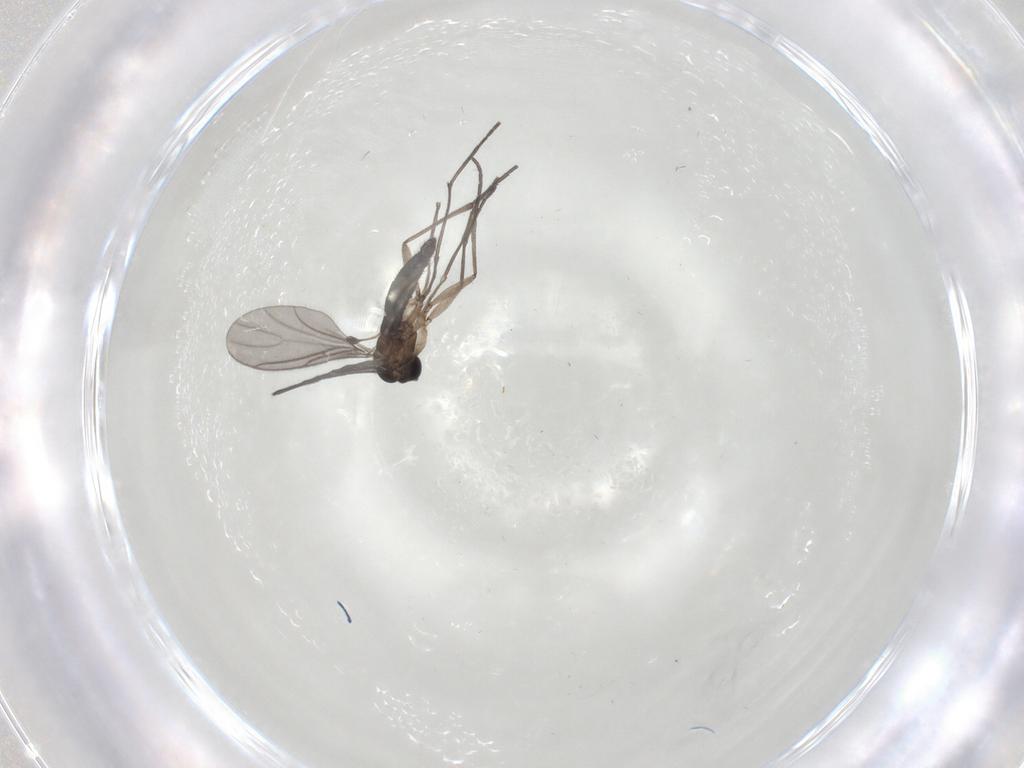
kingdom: Animalia
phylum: Arthropoda
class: Insecta
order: Diptera
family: Sciaridae
